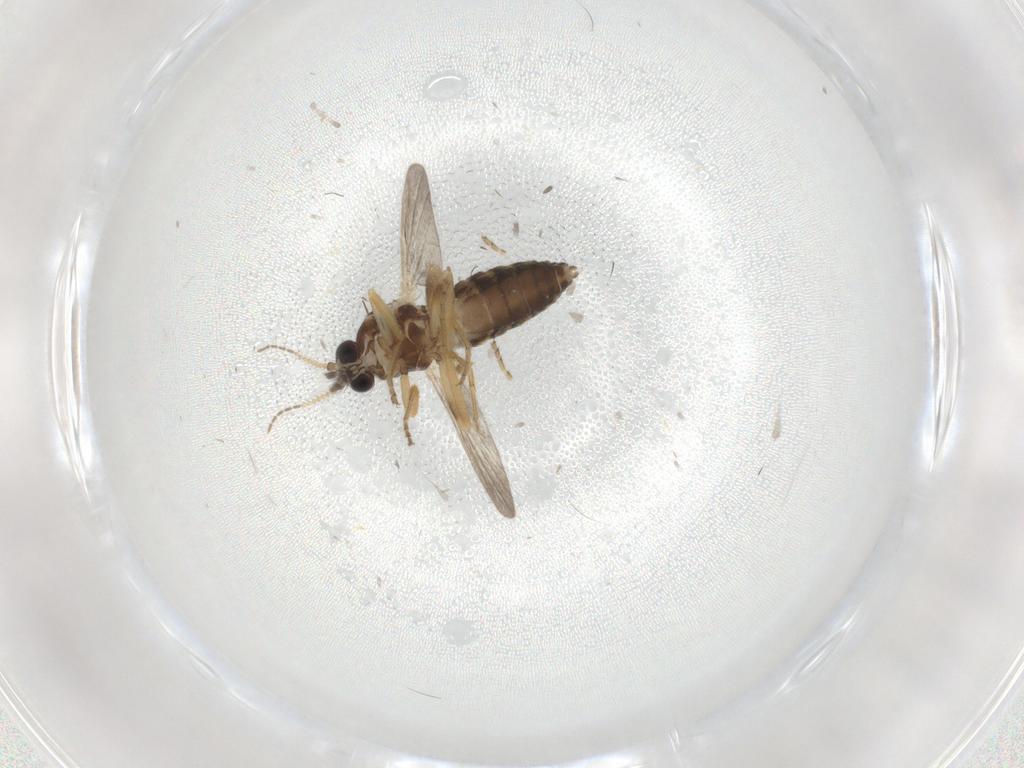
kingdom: Animalia
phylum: Arthropoda
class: Insecta
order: Diptera
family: Ceratopogonidae
